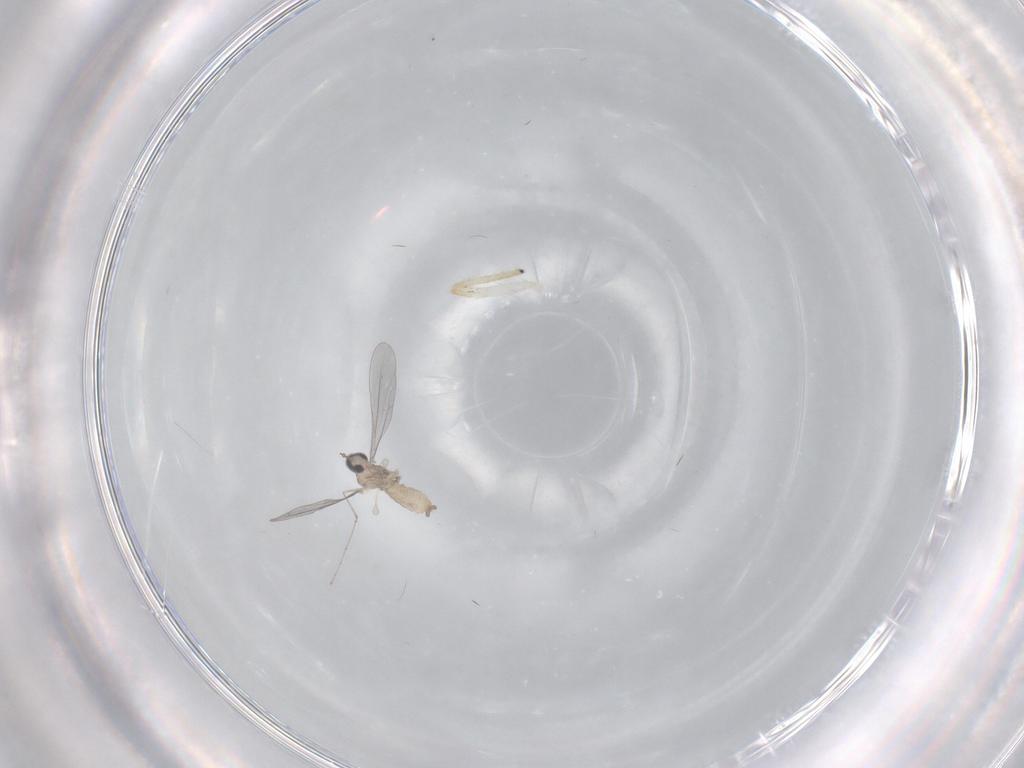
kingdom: Animalia
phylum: Arthropoda
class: Insecta
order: Diptera
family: Cecidomyiidae
